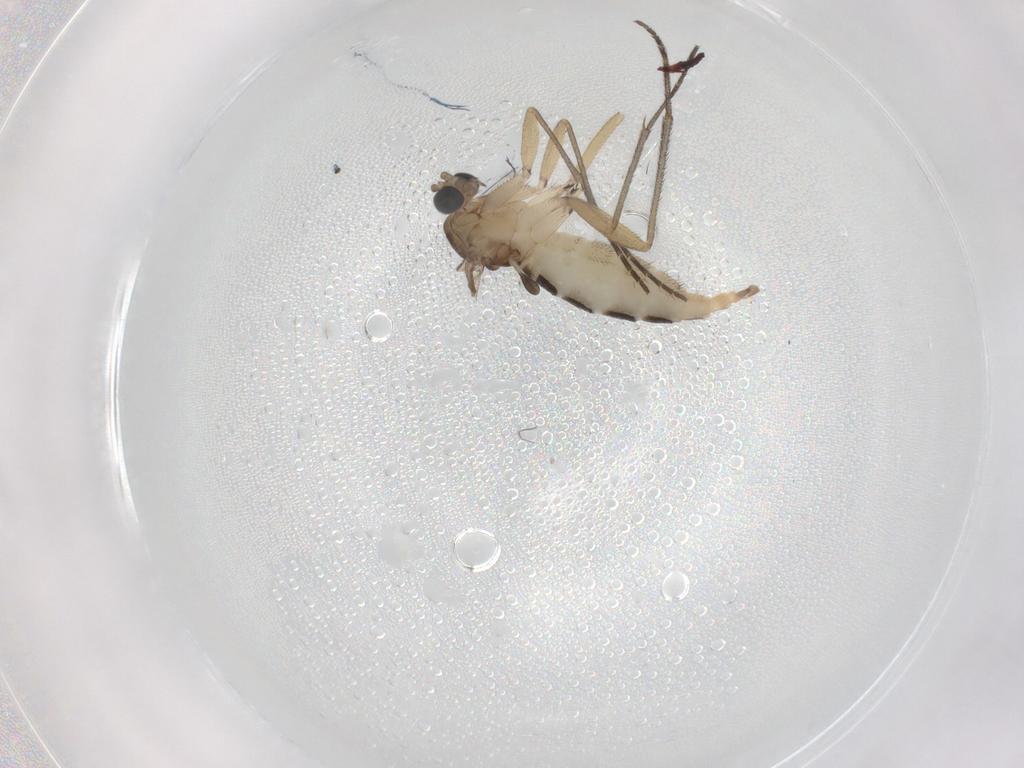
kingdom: Animalia
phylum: Arthropoda
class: Insecta
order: Diptera
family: Sciaridae
